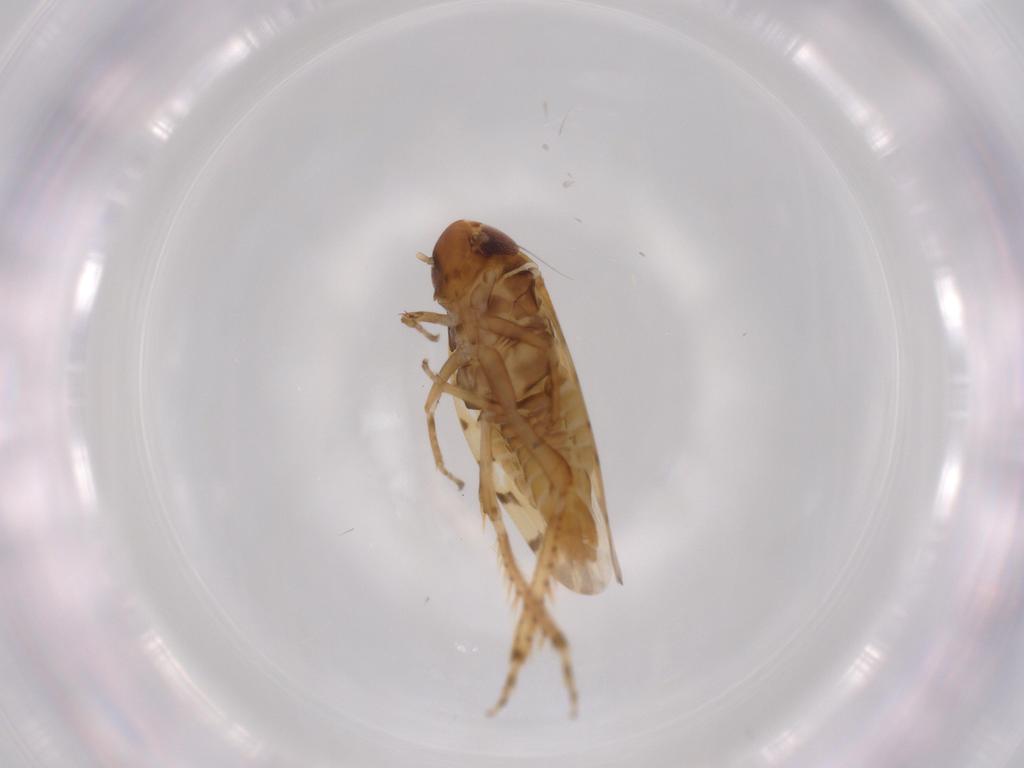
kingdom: Animalia
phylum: Arthropoda
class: Insecta
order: Hemiptera
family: Cicadellidae
